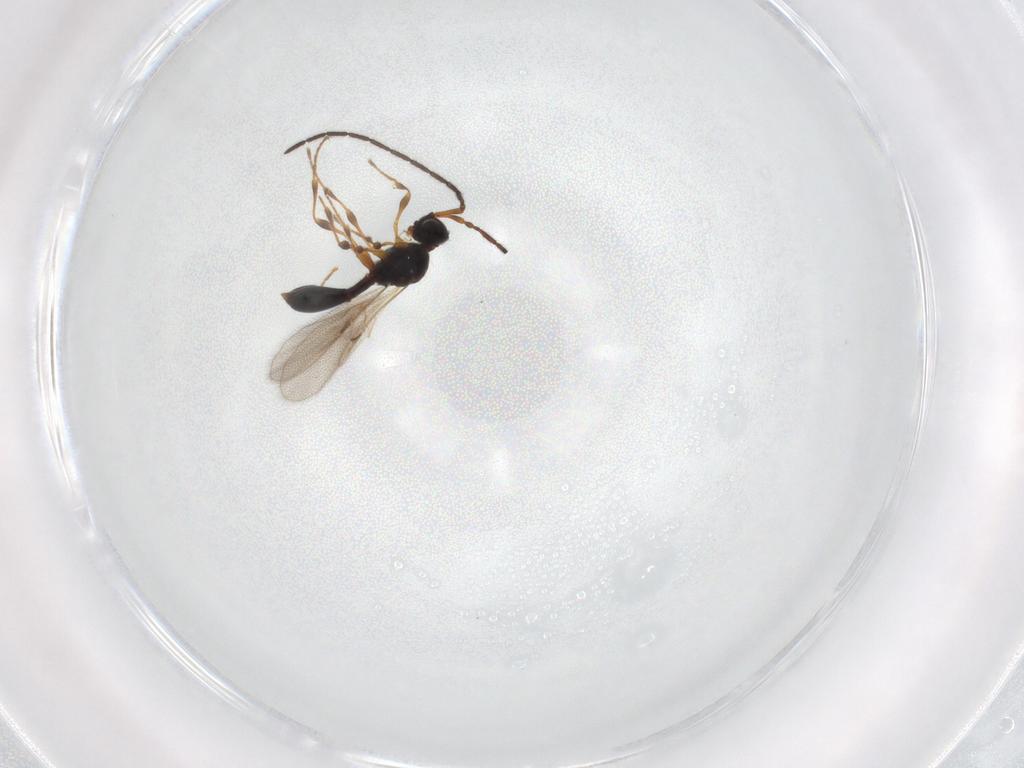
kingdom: Animalia
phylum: Arthropoda
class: Insecta
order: Hymenoptera
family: Diapriidae
